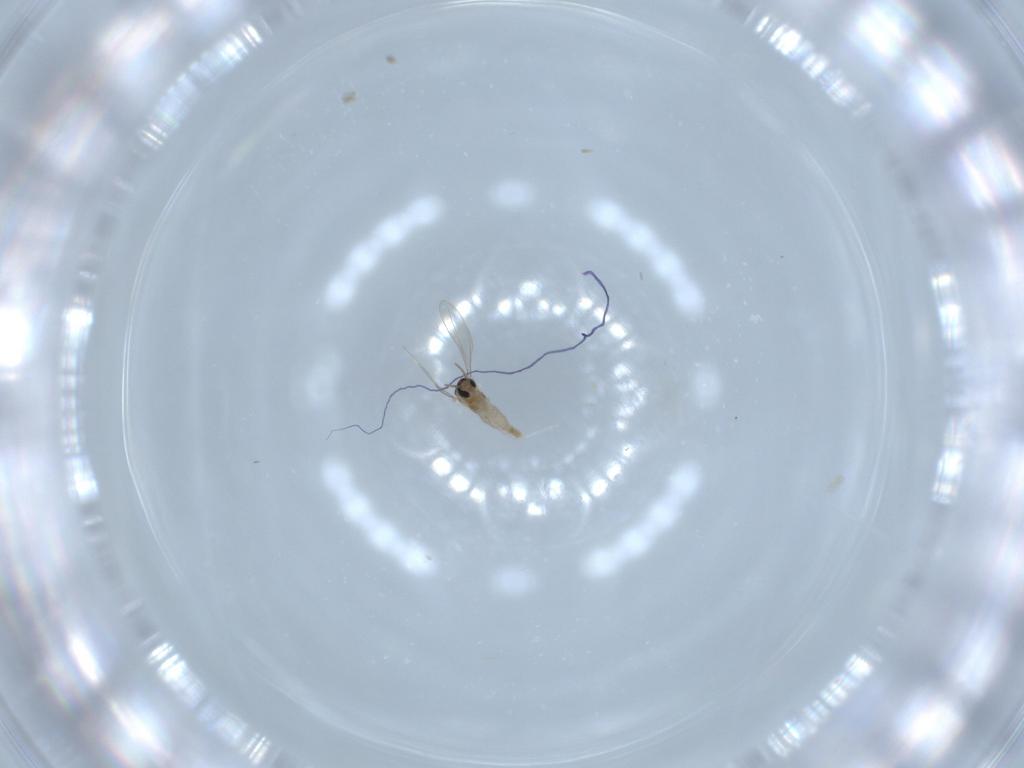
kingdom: Animalia
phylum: Arthropoda
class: Insecta
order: Diptera
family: Cecidomyiidae
